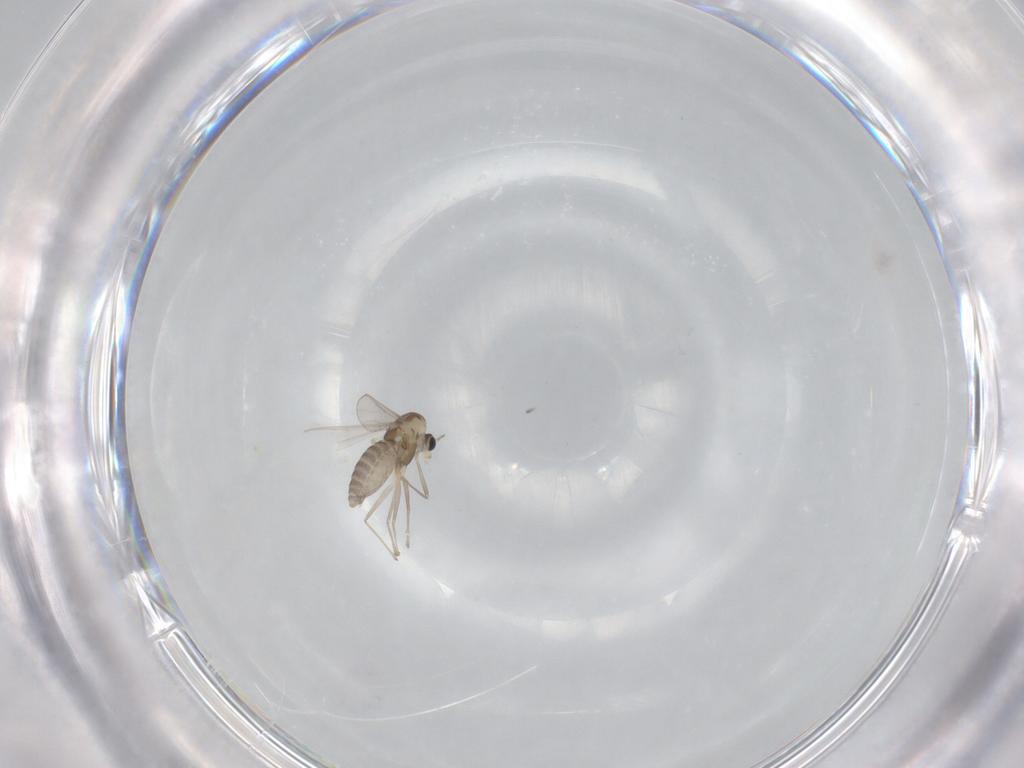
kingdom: Animalia
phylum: Arthropoda
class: Insecta
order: Diptera
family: Chironomidae
